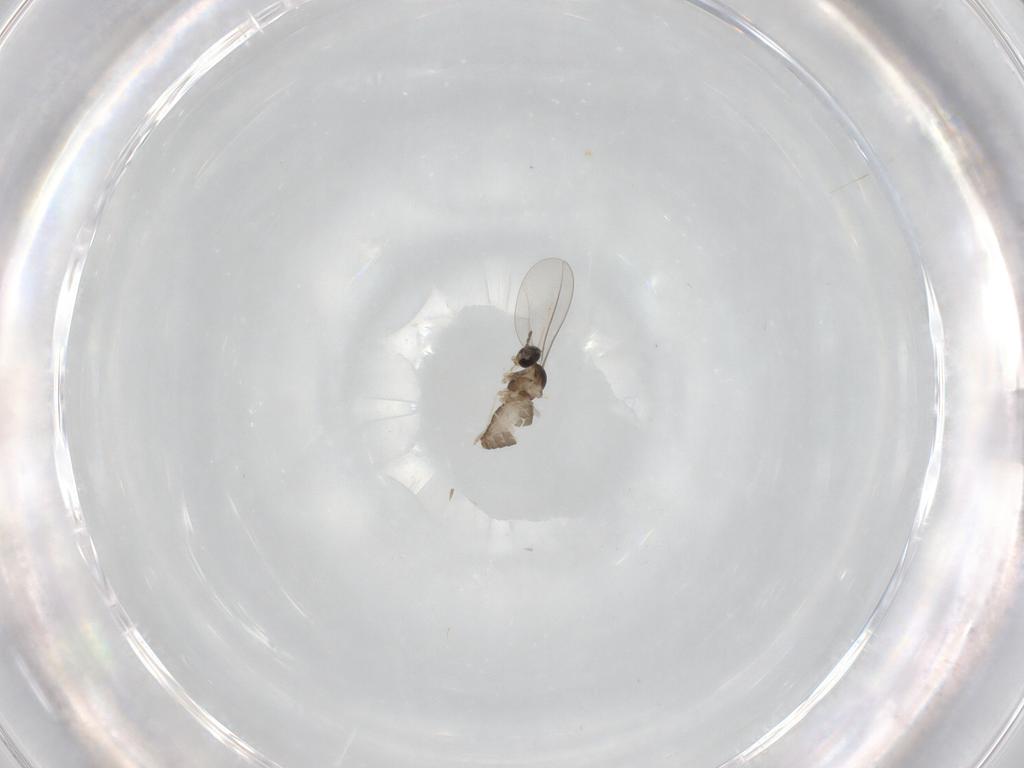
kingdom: Animalia
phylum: Arthropoda
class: Insecta
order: Diptera
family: Cecidomyiidae
